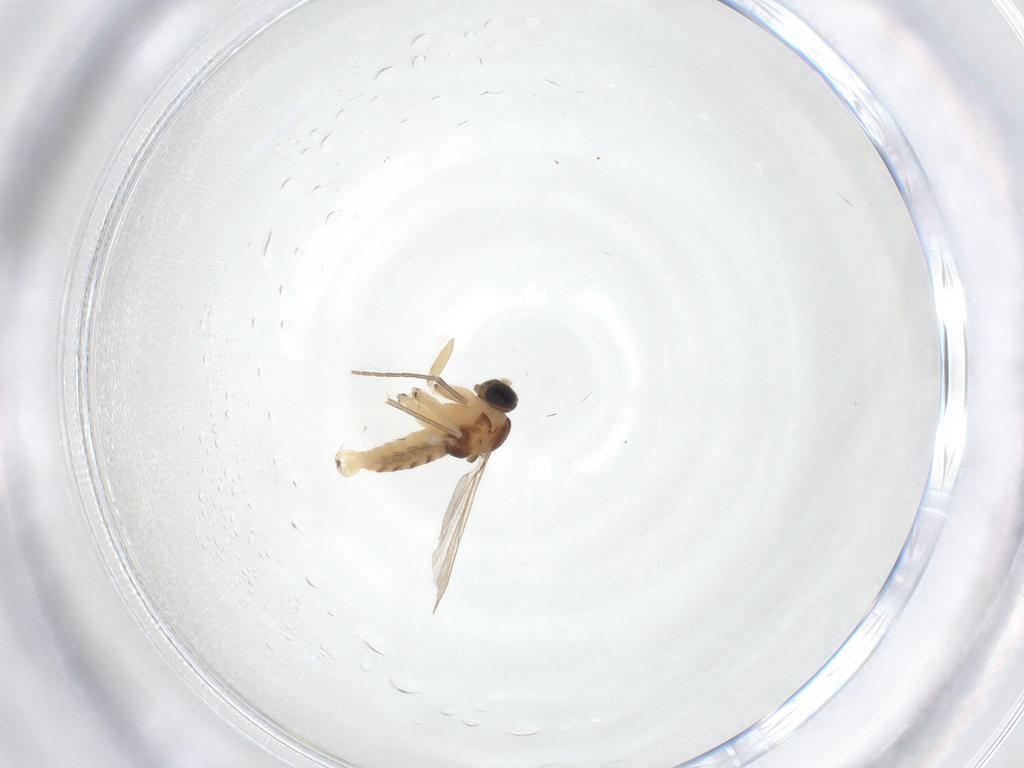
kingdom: Animalia
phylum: Arthropoda
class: Insecta
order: Diptera
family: Sciaridae
